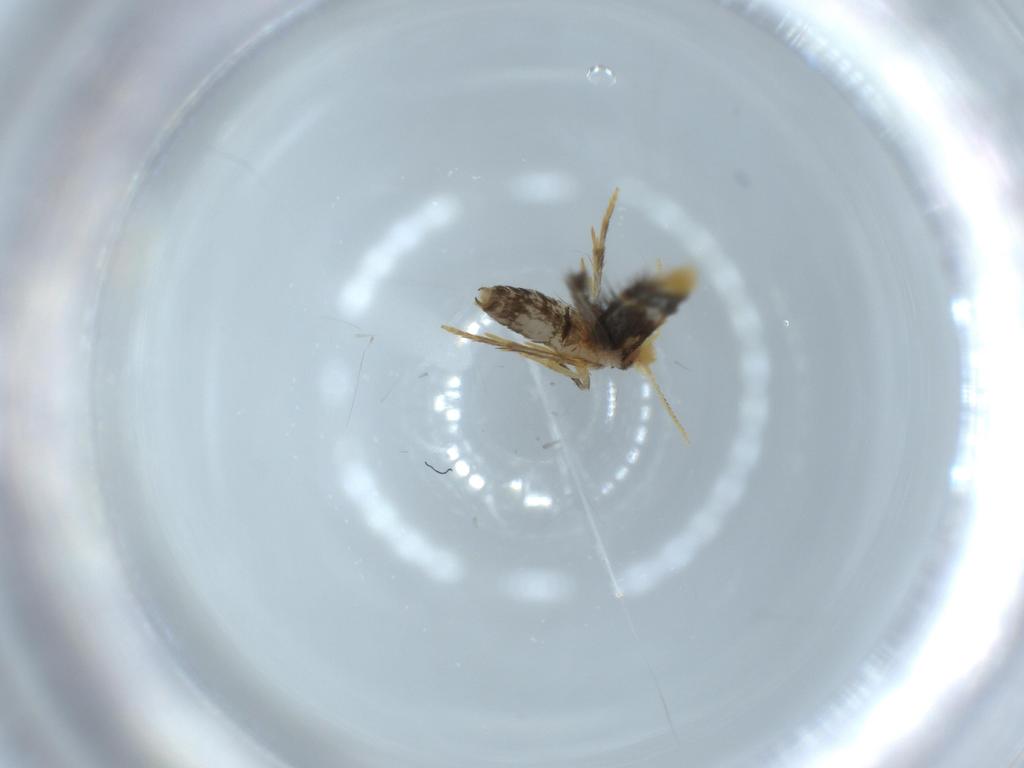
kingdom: Animalia
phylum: Arthropoda
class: Insecta
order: Lepidoptera
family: Copromorphidae
